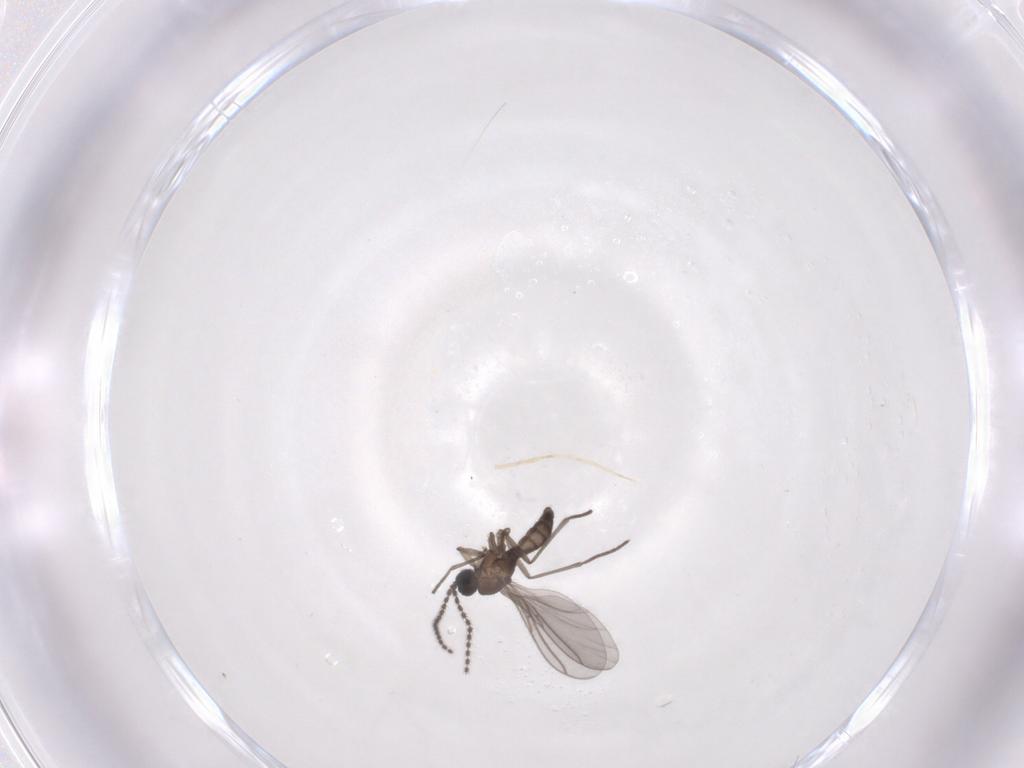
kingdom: Animalia
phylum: Arthropoda
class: Insecta
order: Diptera
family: Sciaridae
